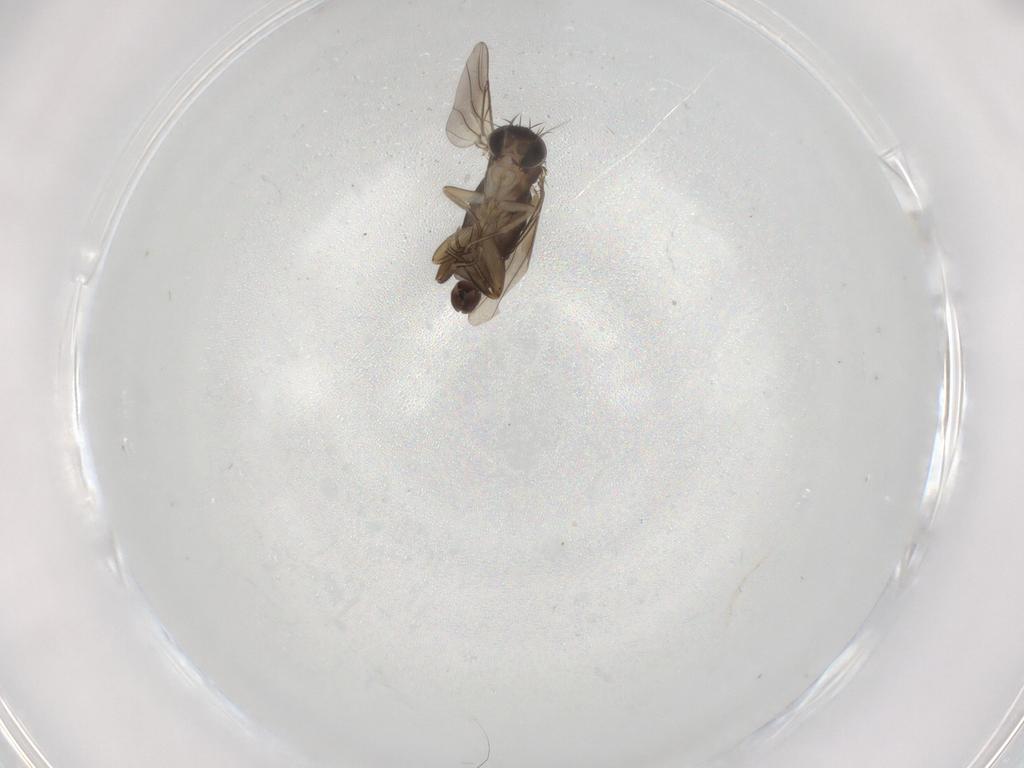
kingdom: Animalia
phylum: Arthropoda
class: Insecta
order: Diptera
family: Phoridae
